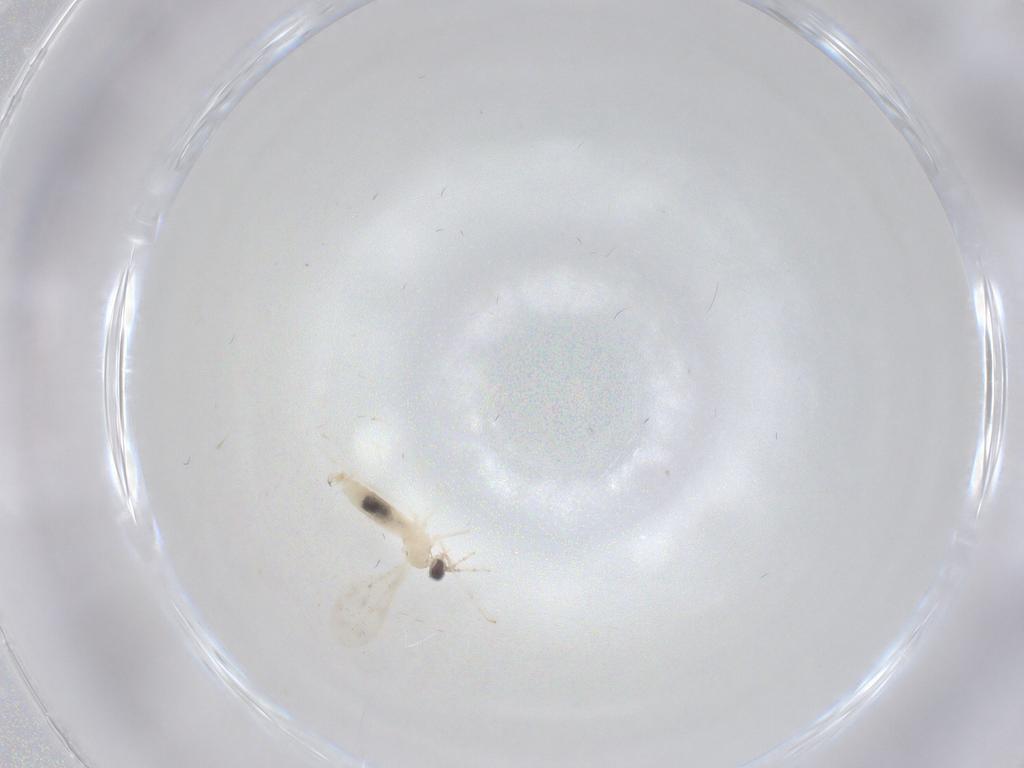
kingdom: Animalia
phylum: Arthropoda
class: Insecta
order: Diptera
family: Cecidomyiidae
